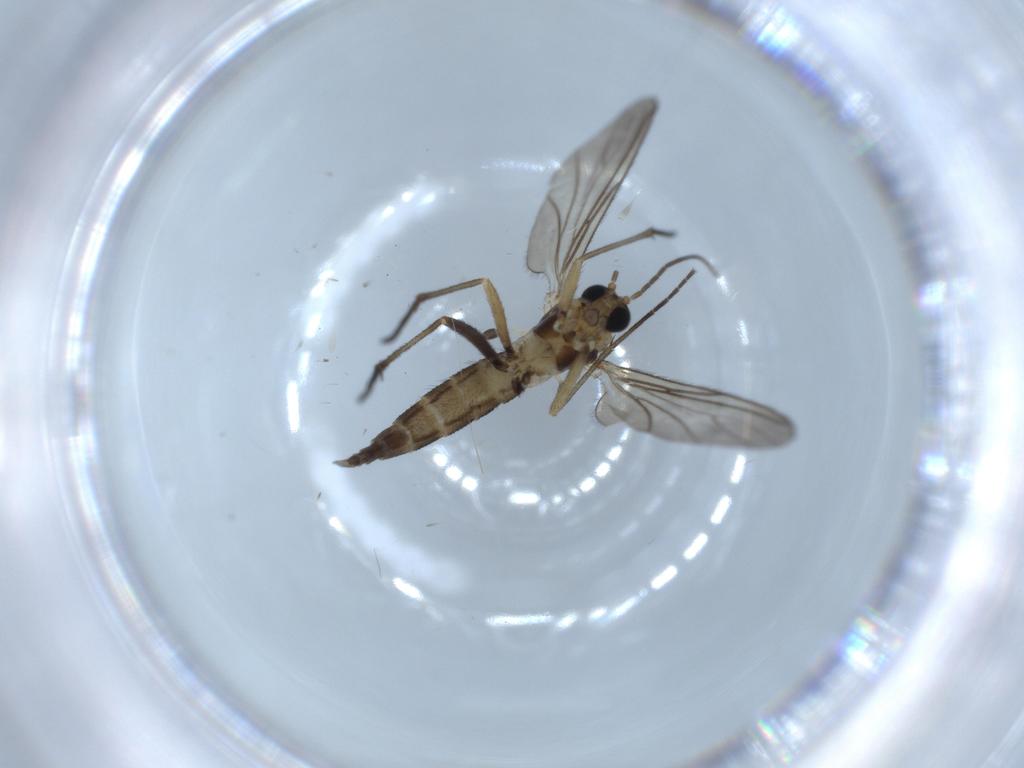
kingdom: Animalia
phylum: Arthropoda
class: Insecta
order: Diptera
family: Sciaridae
